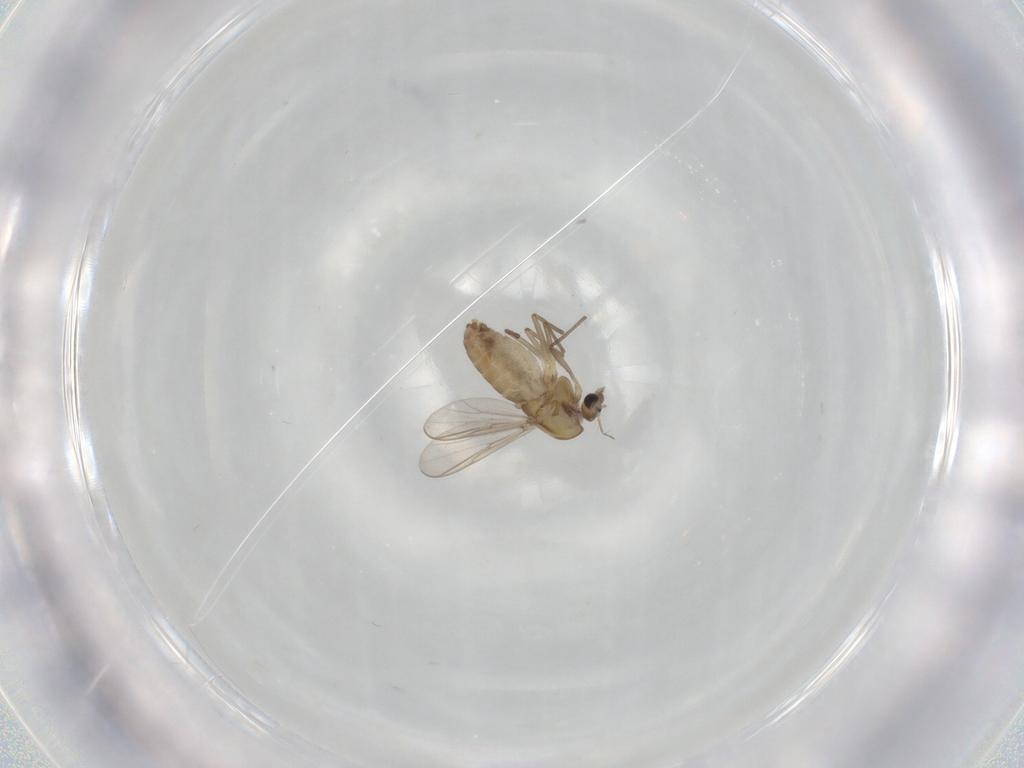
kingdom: Animalia
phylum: Arthropoda
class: Insecta
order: Diptera
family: Chironomidae
